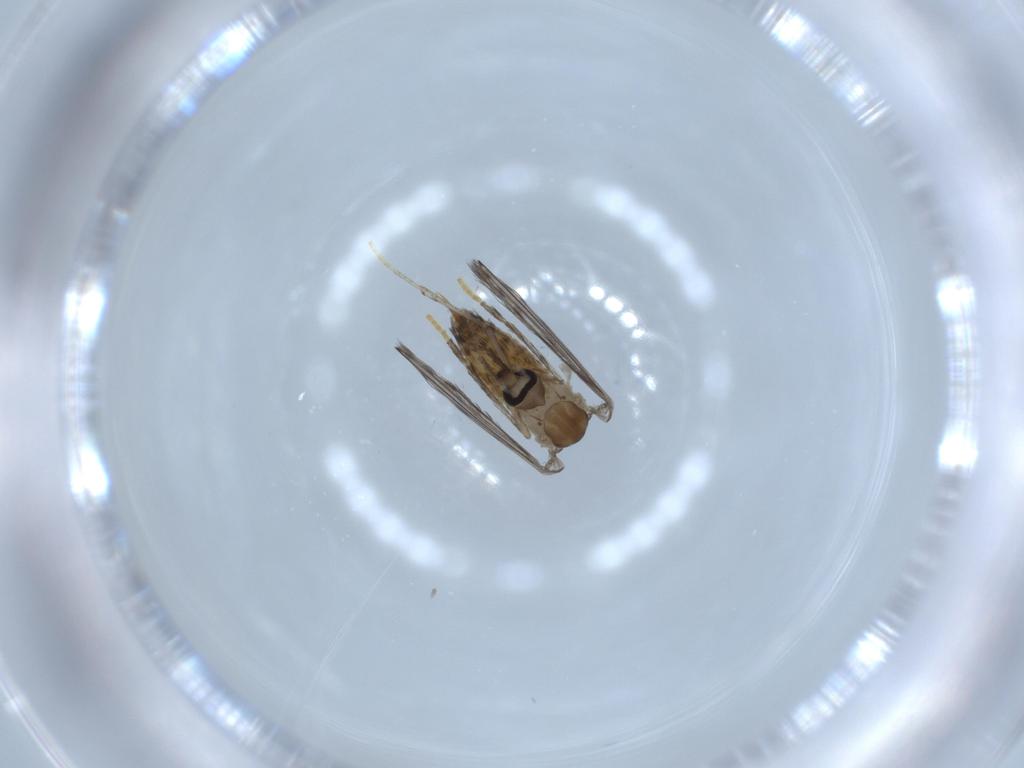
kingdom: Animalia
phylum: Arthropoda
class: Insecta
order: Diptera
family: Psychodidae
